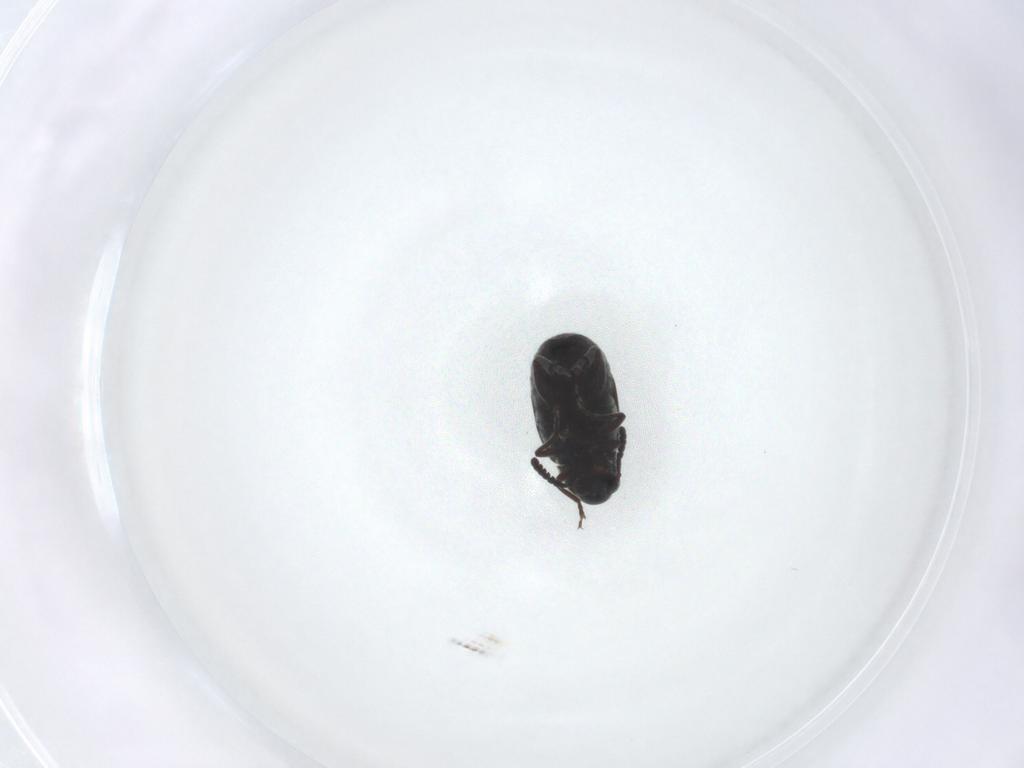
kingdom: Animalia
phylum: Arthropoda
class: Insecta
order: Coleoptera
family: Chrysomelidae
